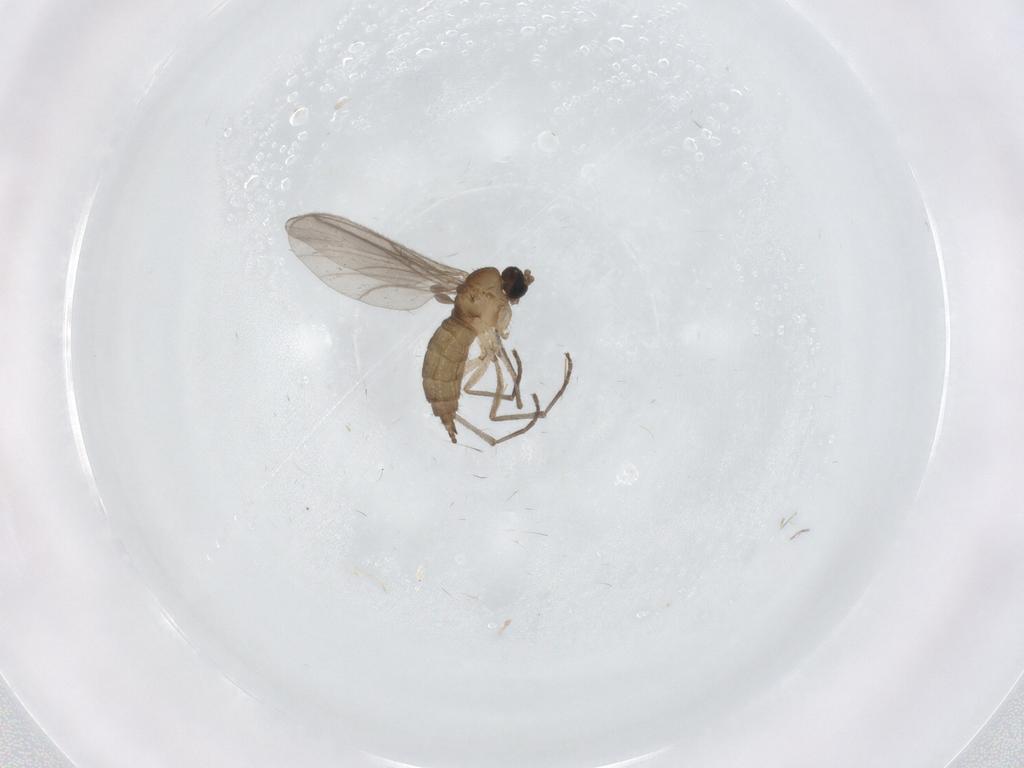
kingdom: Animalia
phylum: Arthropoda
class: Insecta
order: Diptera
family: Sciaridae
